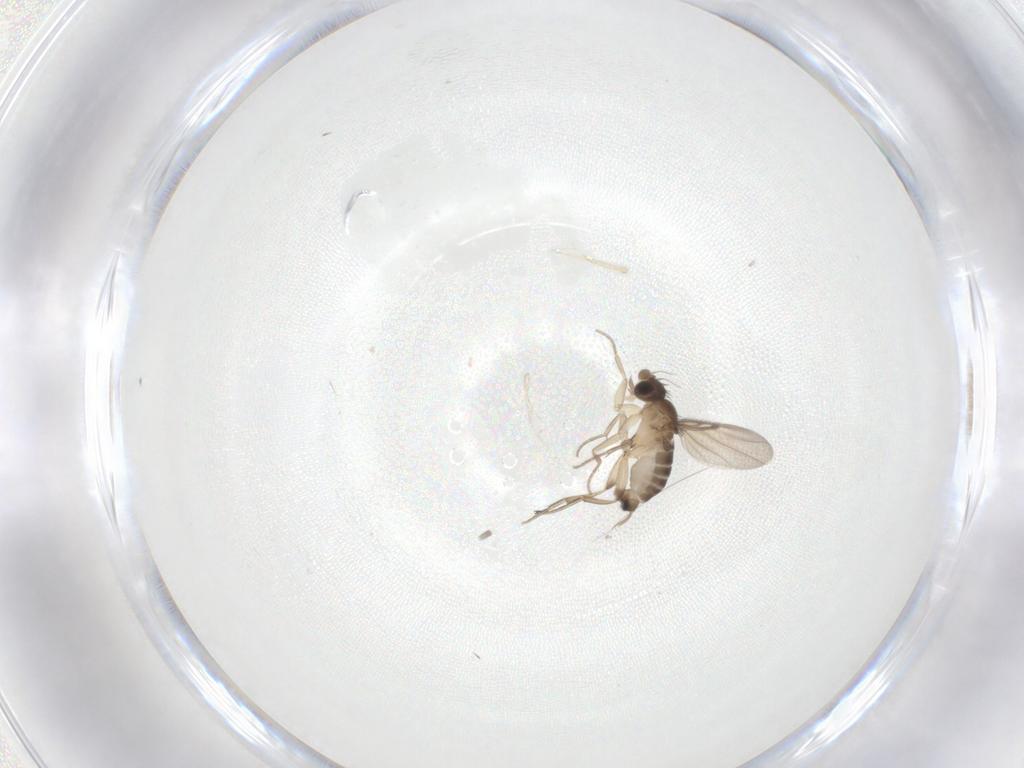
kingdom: Animalia
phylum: Arthropoda
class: Insecta
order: Diptera
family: Phoridae
